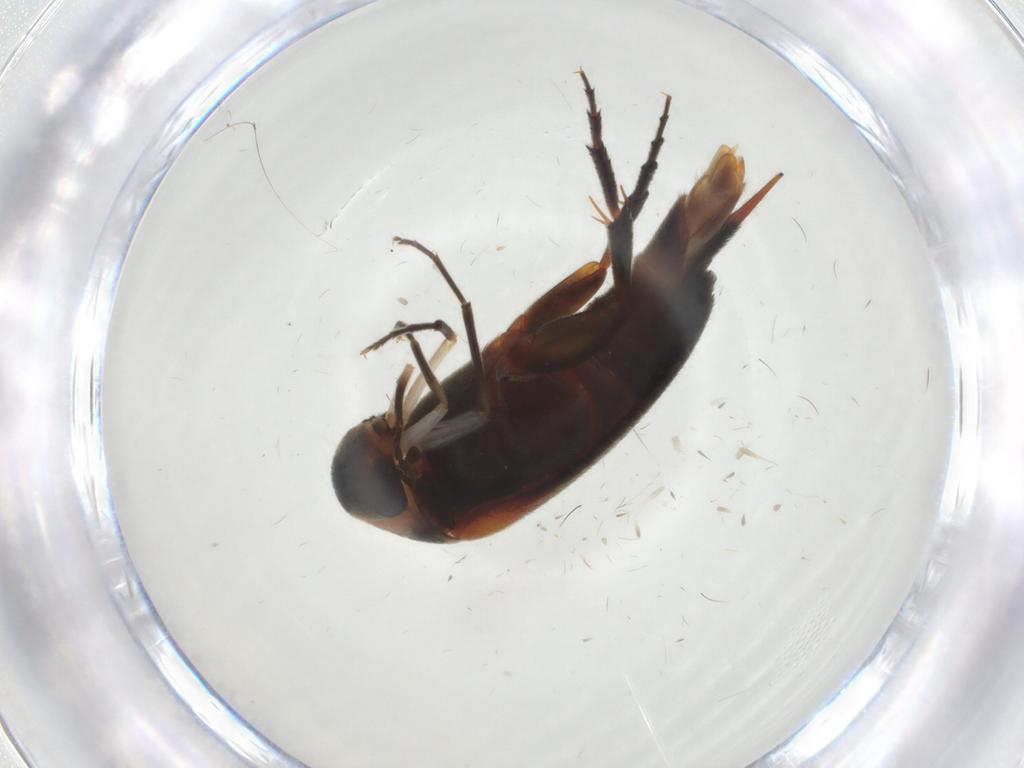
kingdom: Animalia
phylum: Arthropoda
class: Insecta
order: Coleoptera
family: Mordellidae
